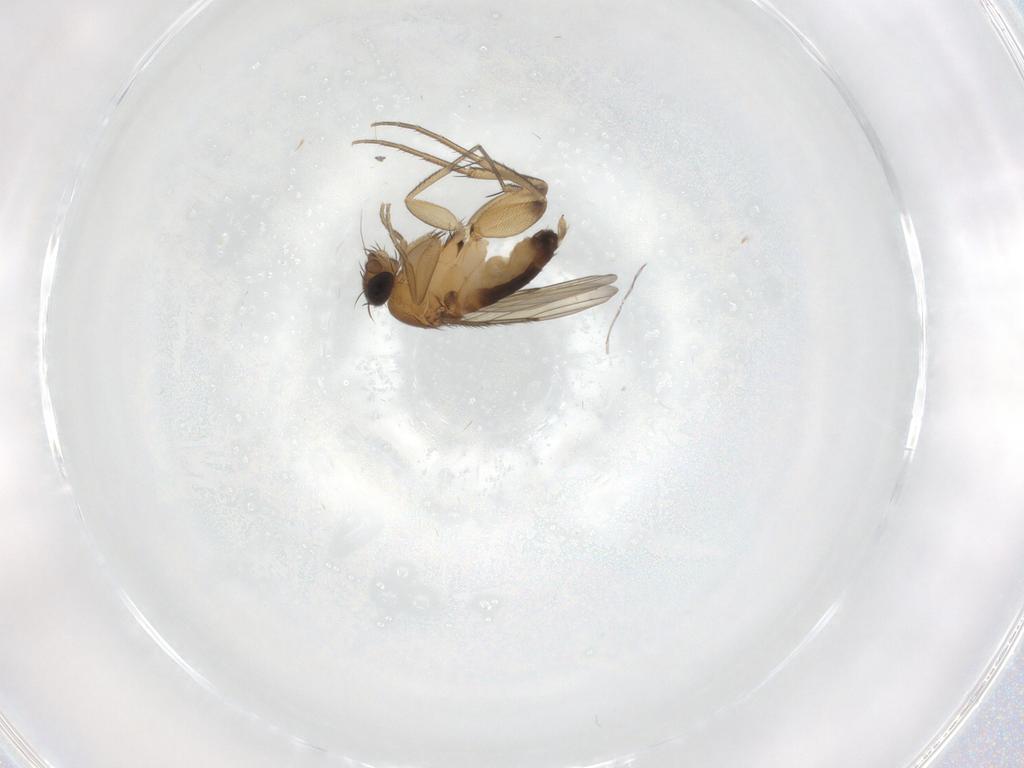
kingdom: Animalia
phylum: Arthropoda
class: Insecta
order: Diptera
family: Phoridae
